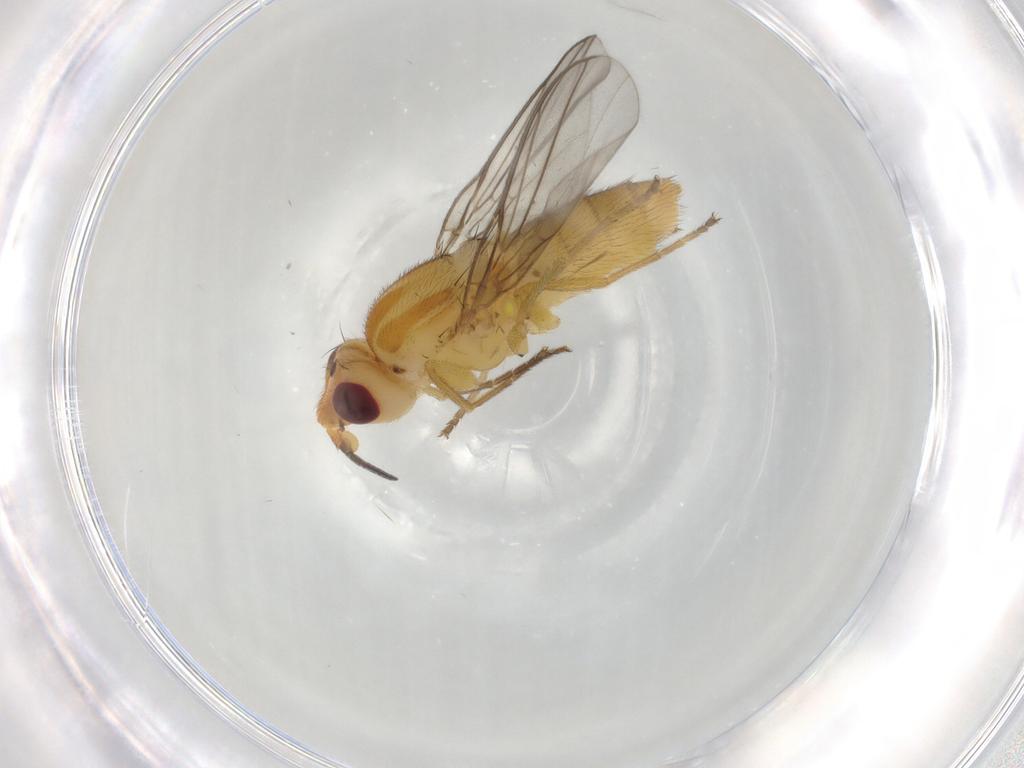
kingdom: Animalia
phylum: Arthropoda
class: Insecta
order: Diptera
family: Chloropidae
